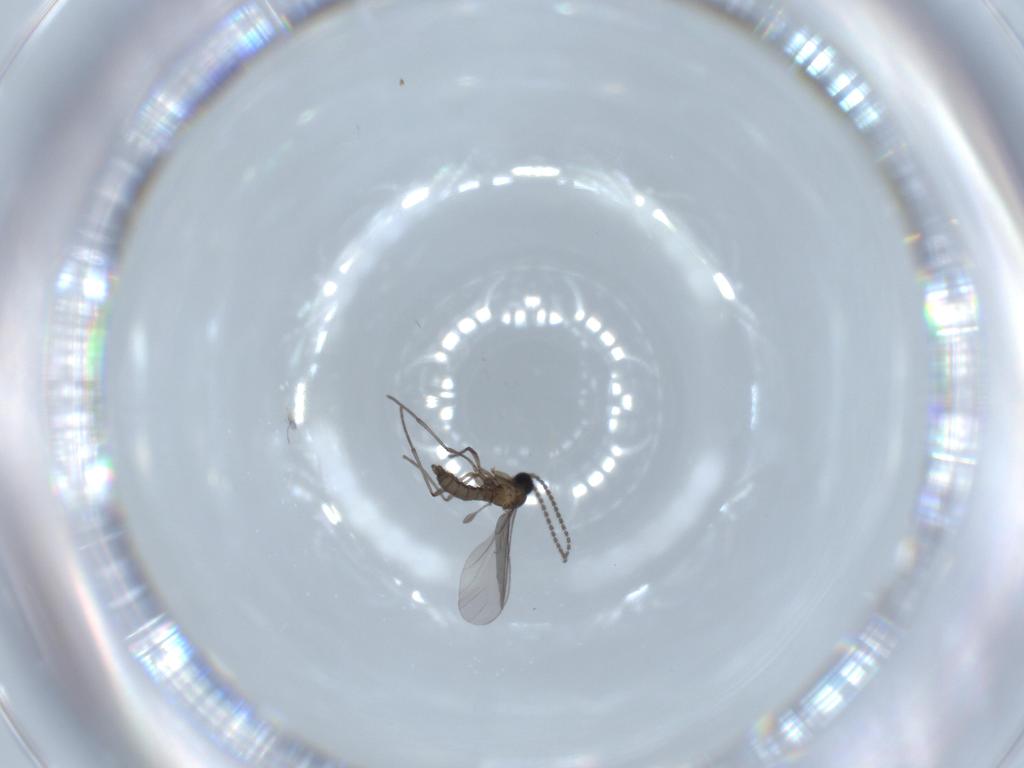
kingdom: Animalia
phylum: Arthropoda
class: Insecta
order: Diptera
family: Sciaridae
